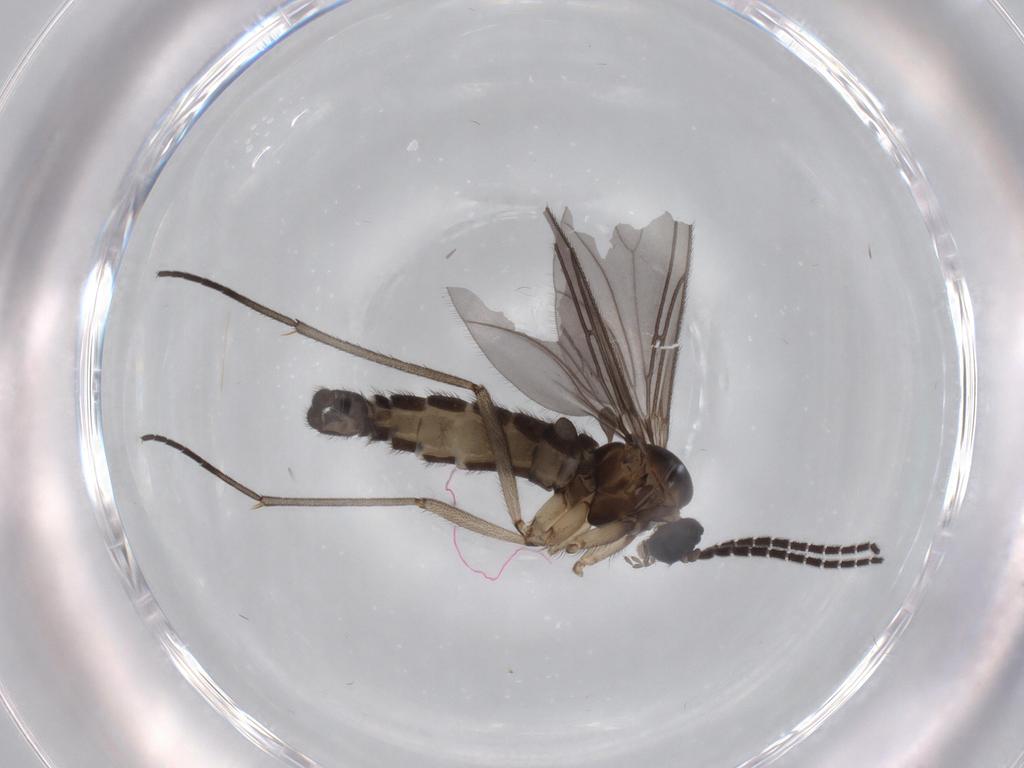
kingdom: Animalia
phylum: Arthropoda
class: Insecta
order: Diptera
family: Sciaridae
